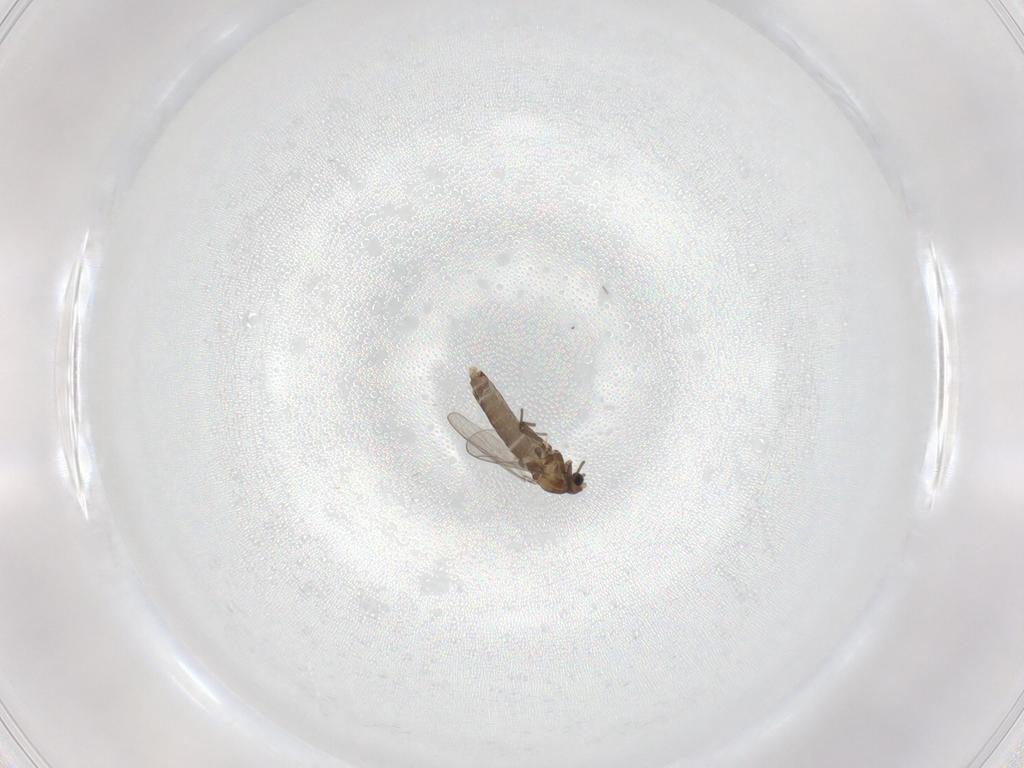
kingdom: Animalia
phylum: Arthropoda
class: Insecta
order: Diptera
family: Chironomidae
